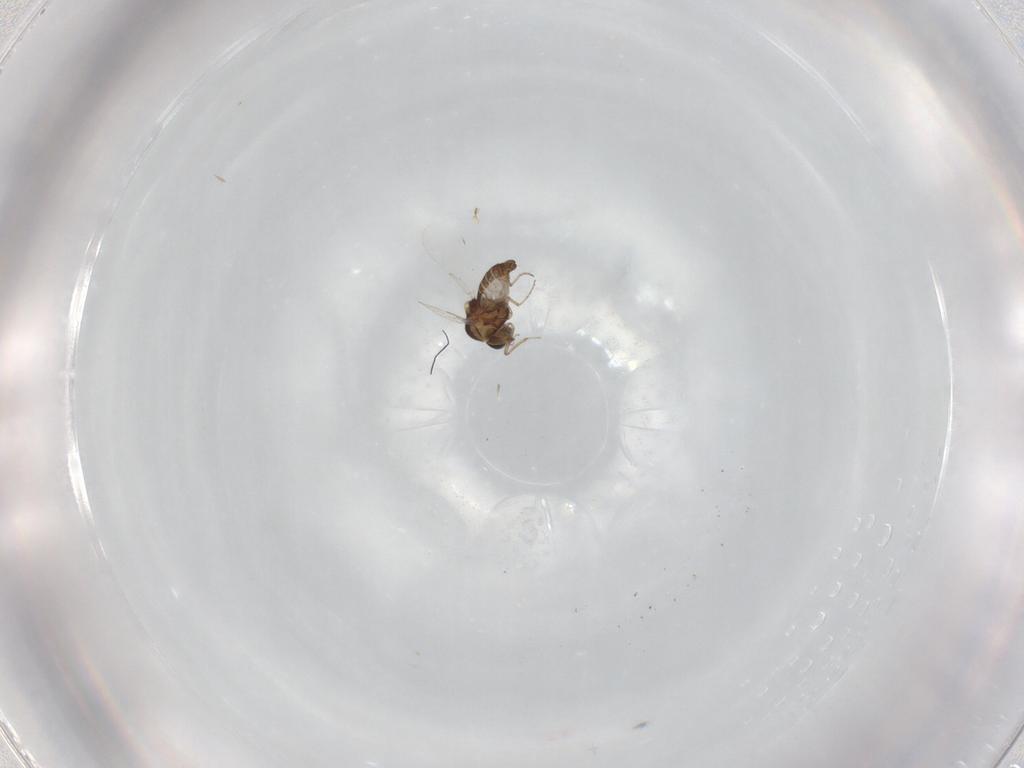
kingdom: Animalia
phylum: Arthropoda
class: Insecta
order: Diptera
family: Ceratopogonidae
